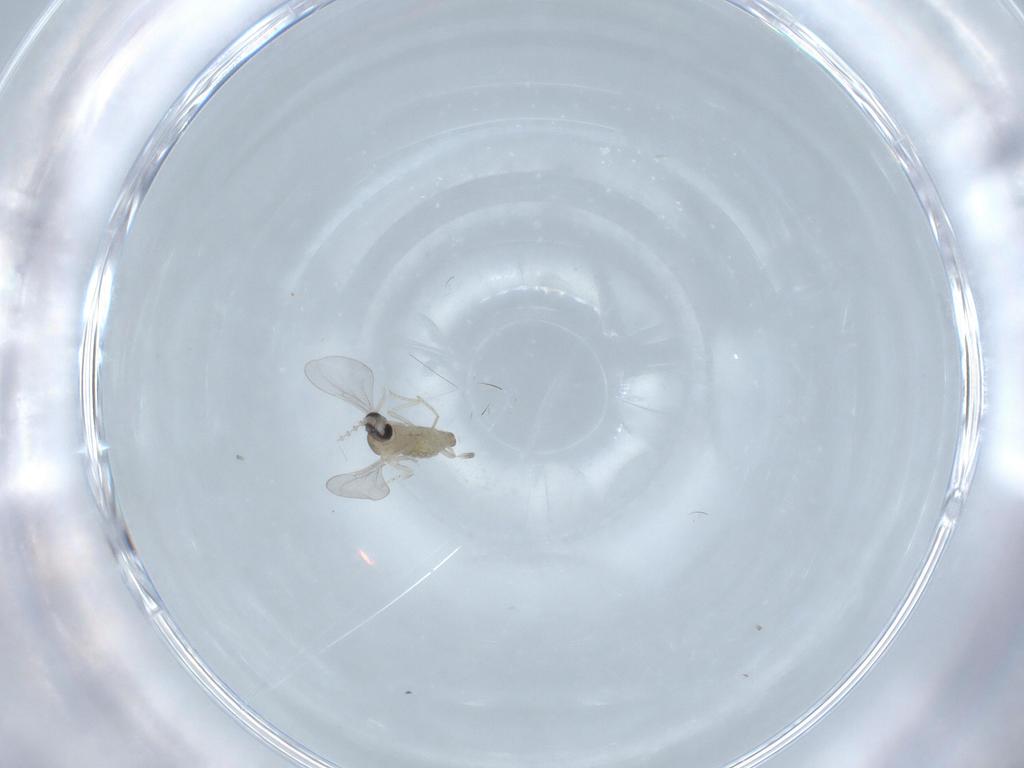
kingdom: Animalia
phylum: Arthropoda
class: Insecta
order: Diptera
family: Cecidomyiidae
